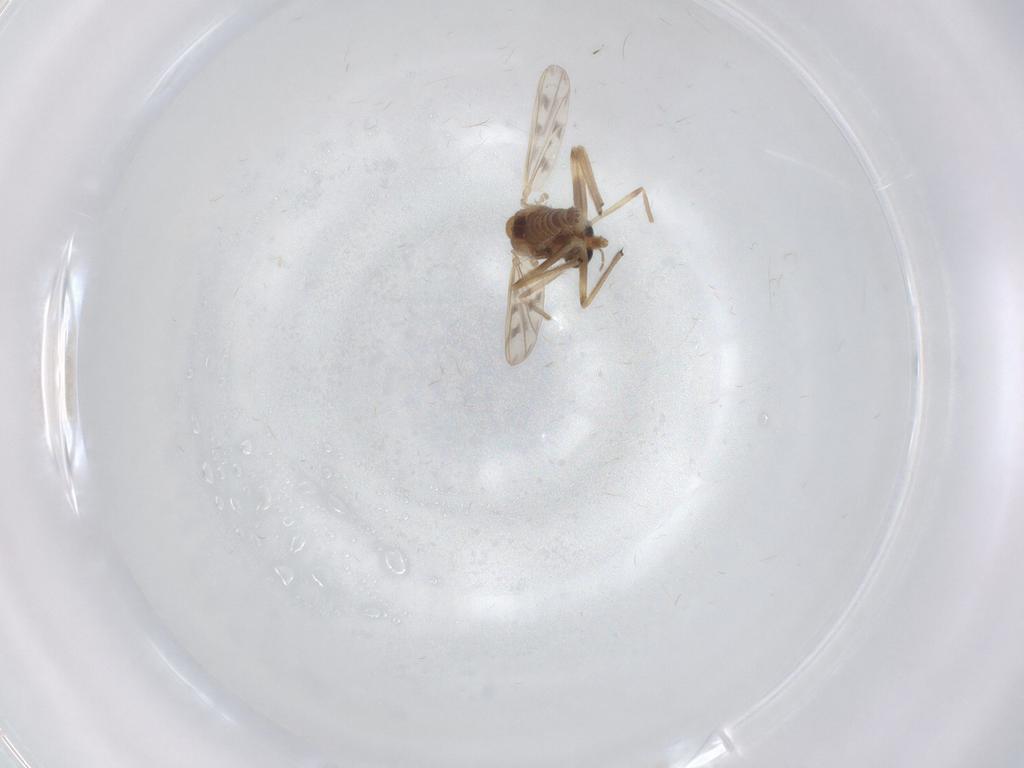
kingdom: Animalia
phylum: Arthropoda
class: Insecta
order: Diptera
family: Chironomidae
